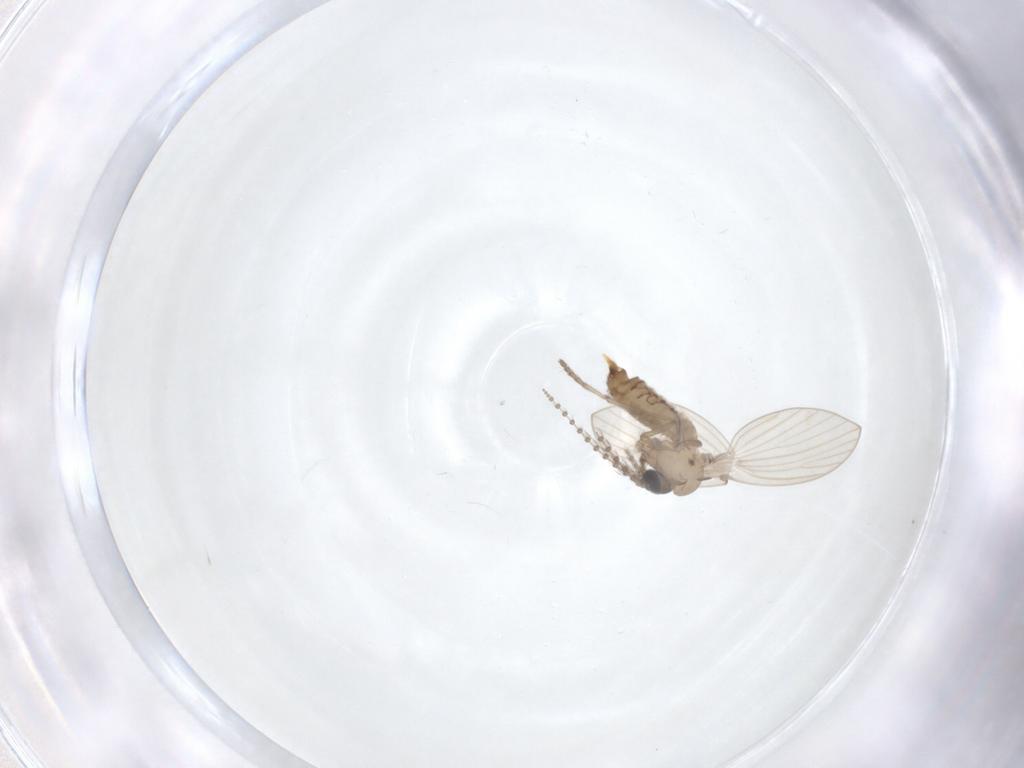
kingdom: Animalia
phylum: Arthropoda
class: Insecta
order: Diptera
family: Psychodidae
